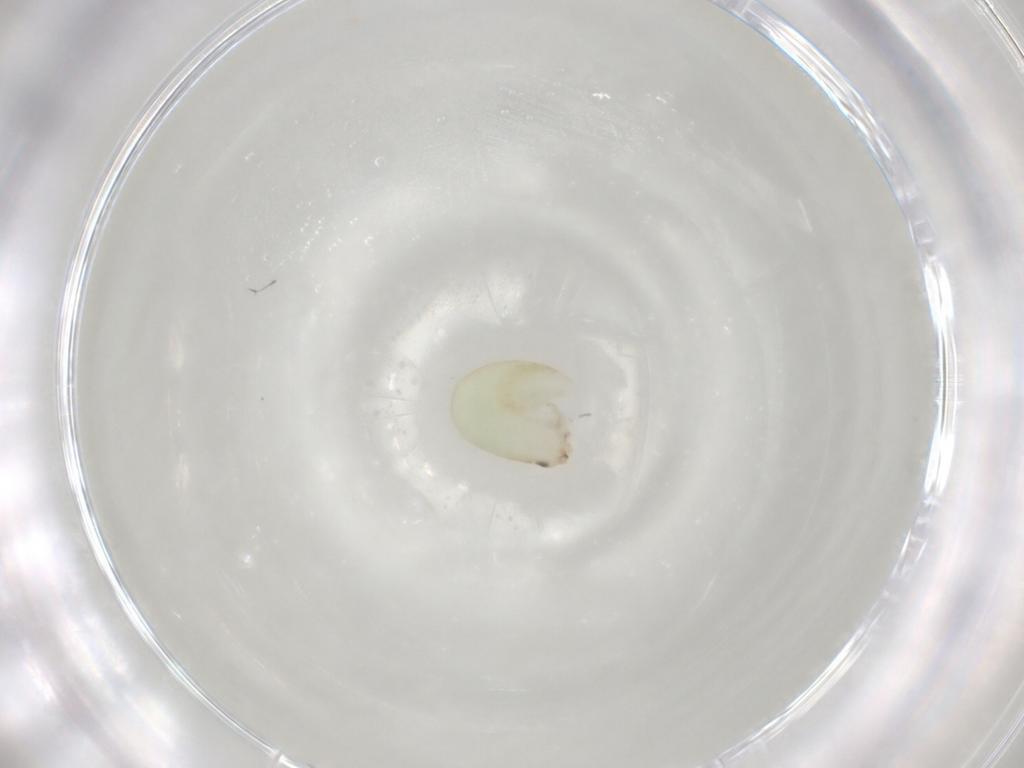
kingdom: Animalia
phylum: Arthropoda
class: Insecta
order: Hymenoptera
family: Dryinidae
